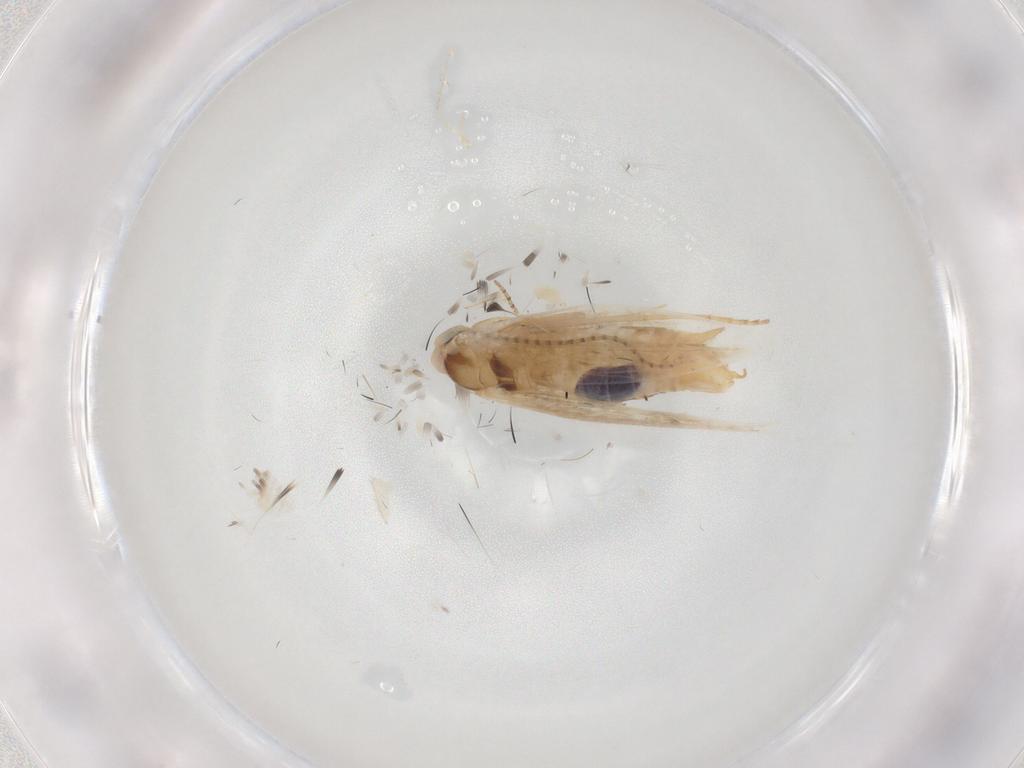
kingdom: Animalia
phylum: Arthropoda
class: Insecta
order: Lepidoptera
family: Bucculatricidae
